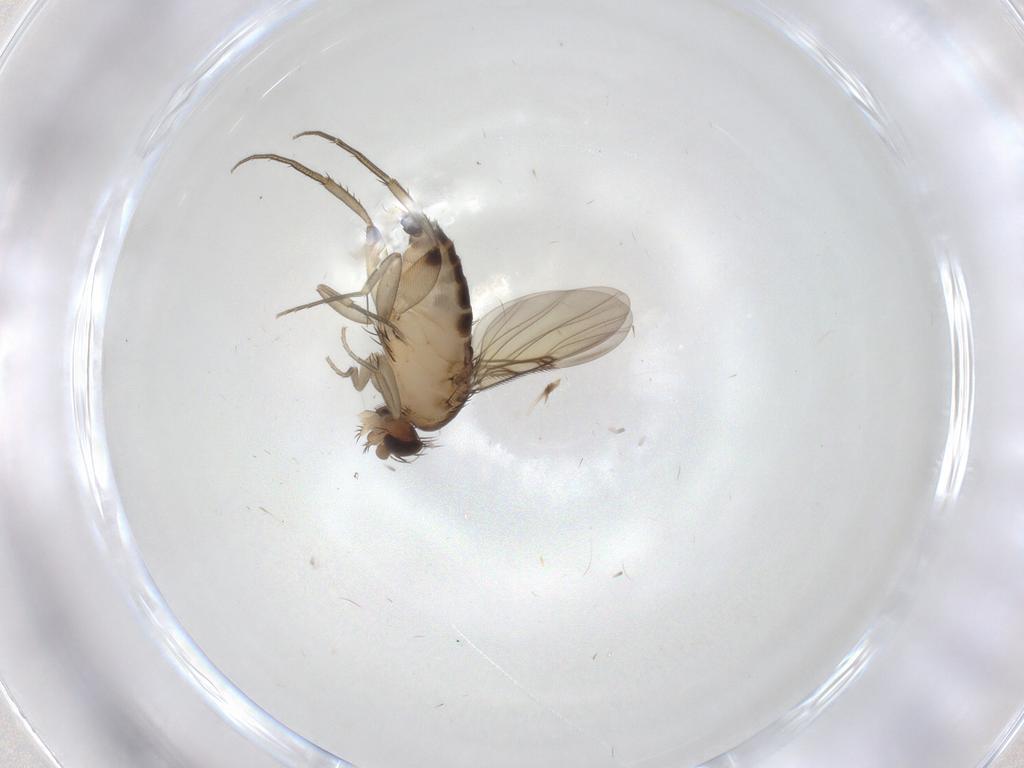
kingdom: Animalia
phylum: Arthropoda
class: Insecta
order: Diptera
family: Phoridae
